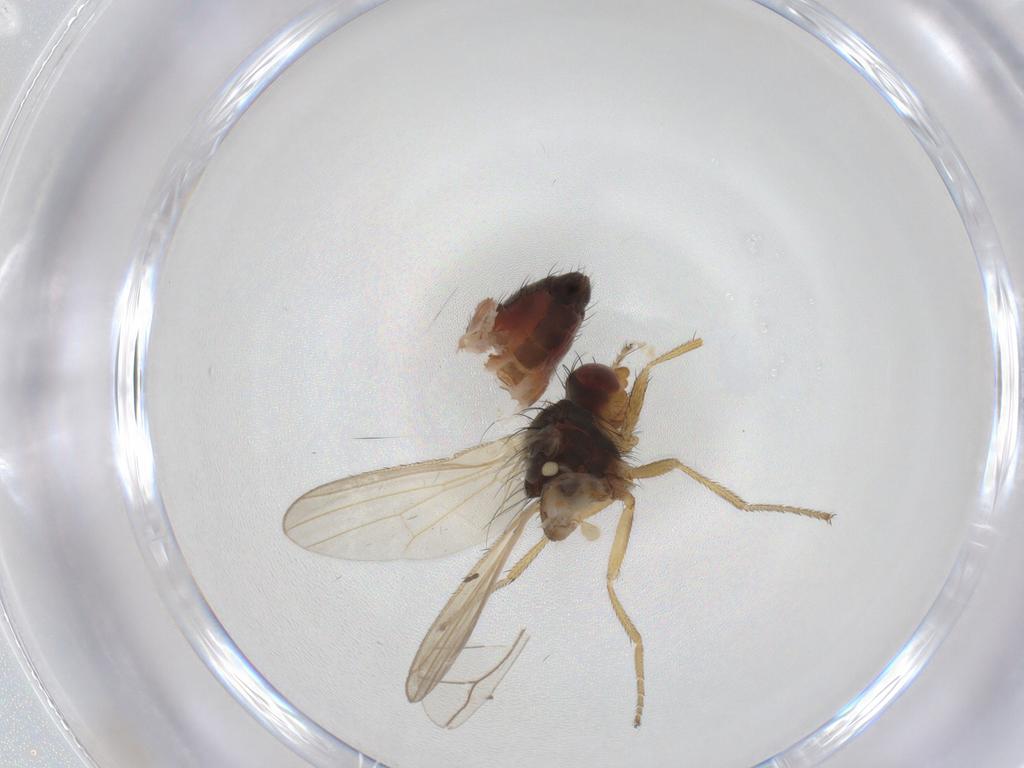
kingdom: Animalia
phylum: Arthropoda
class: Insecta
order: Diptera
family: Heleomyzidae
